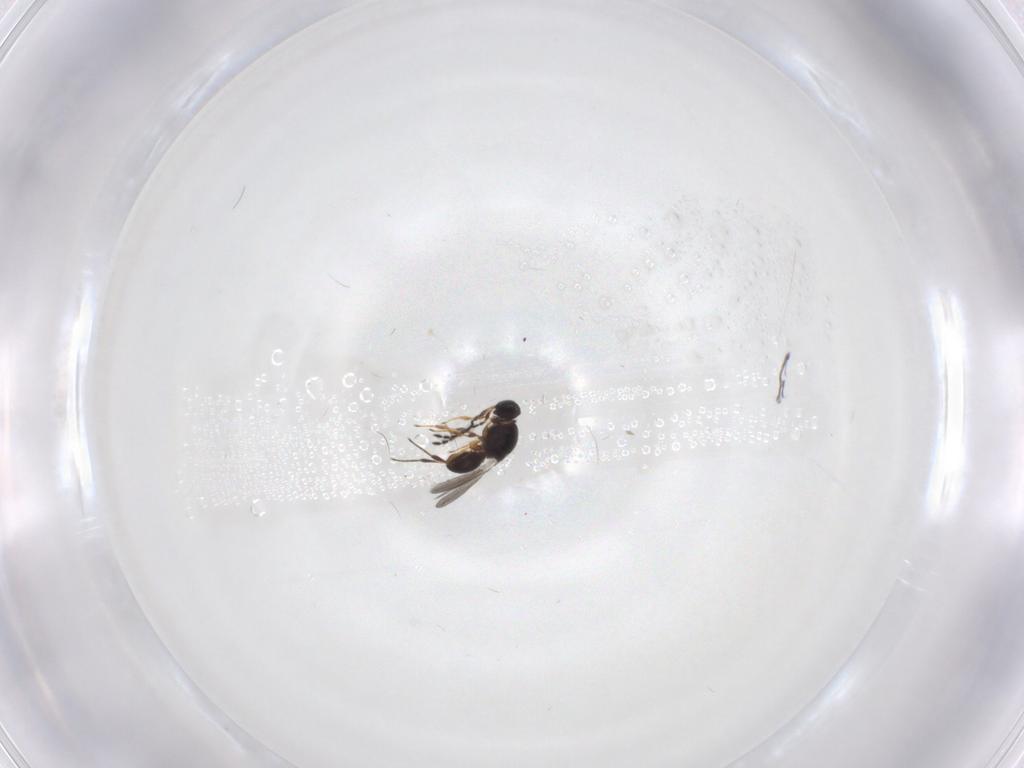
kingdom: Animalia
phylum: Arthropoda
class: Insecta
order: Hymenoptera
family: Platygastridae
